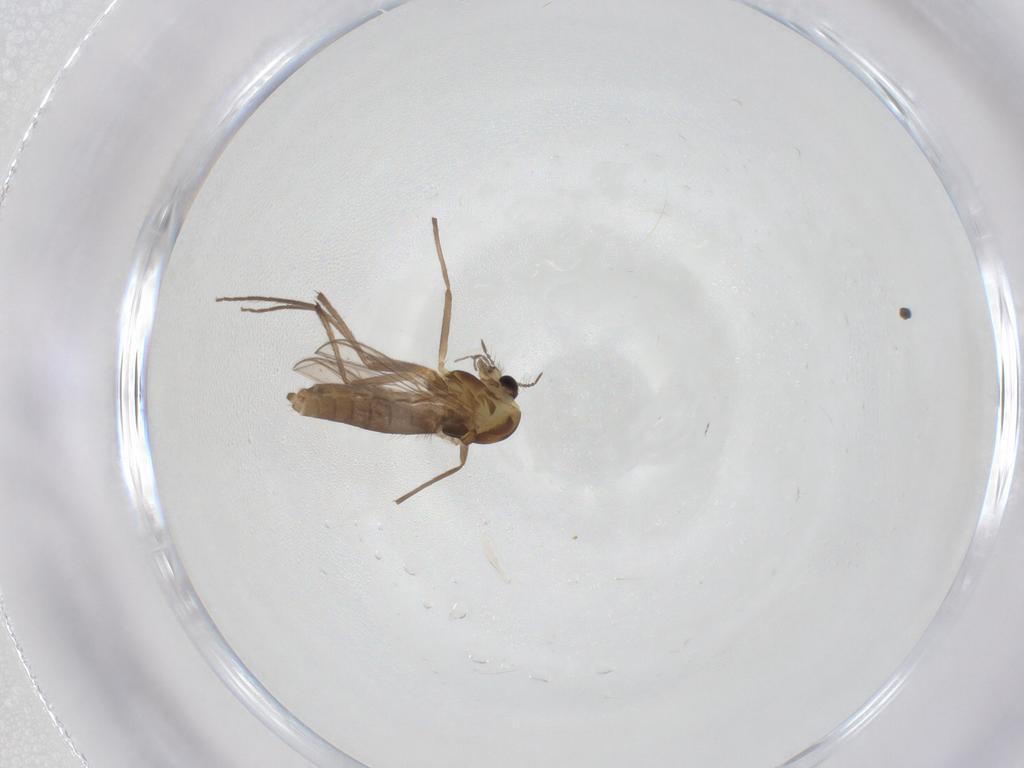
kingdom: Animalia
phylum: Arthropoda
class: Insecta
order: Diptera
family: Chironomidae
